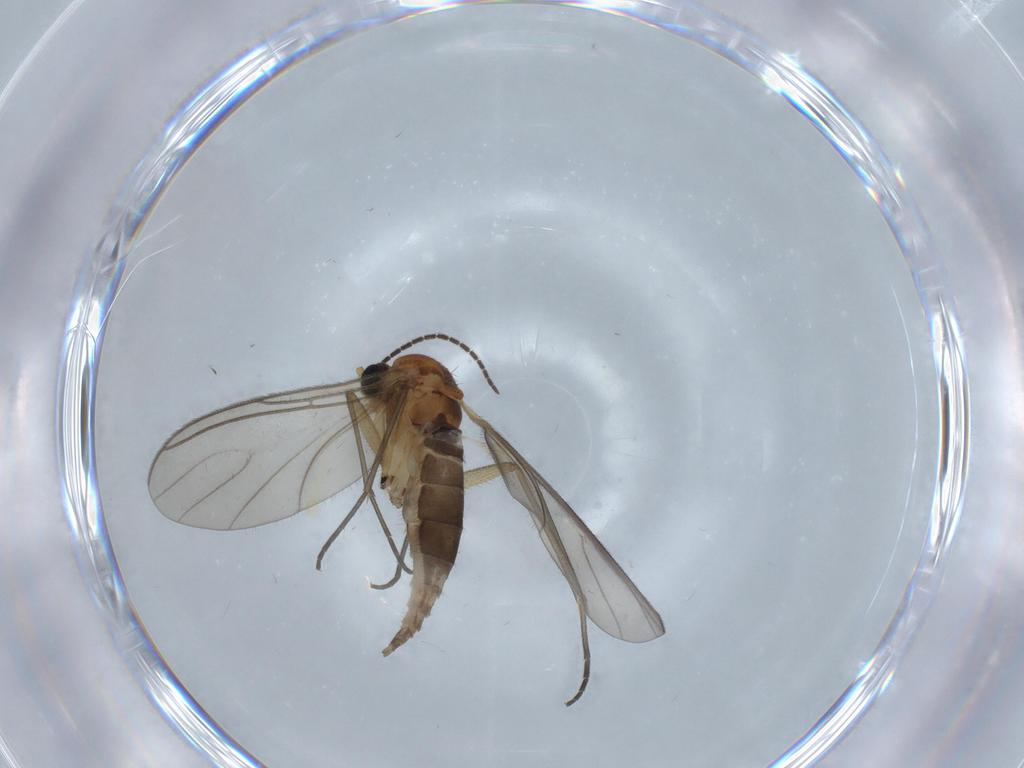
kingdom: Animalia
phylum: Arthropoda
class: Insecta
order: Diptera
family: Sciaridae
